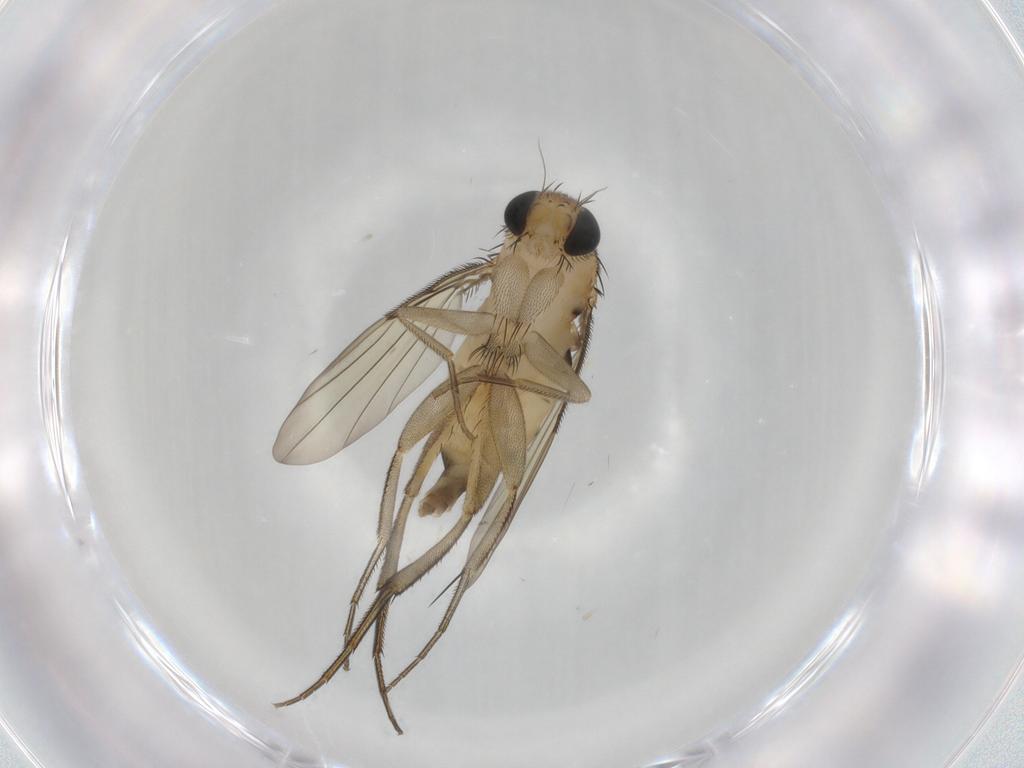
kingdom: Animalia
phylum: Arthropoda
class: Insecta
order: Diptera
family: Phoridae
